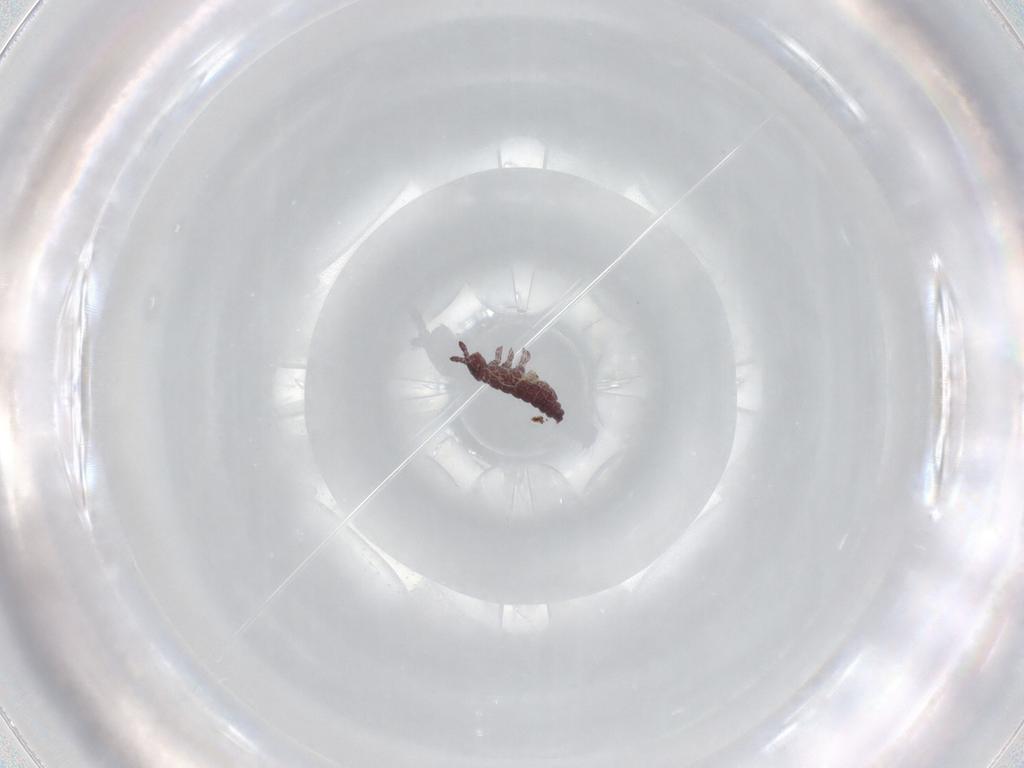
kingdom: Animalia
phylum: Arthropoda
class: Collembola
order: Poduromorpha
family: Hypogastruridae
